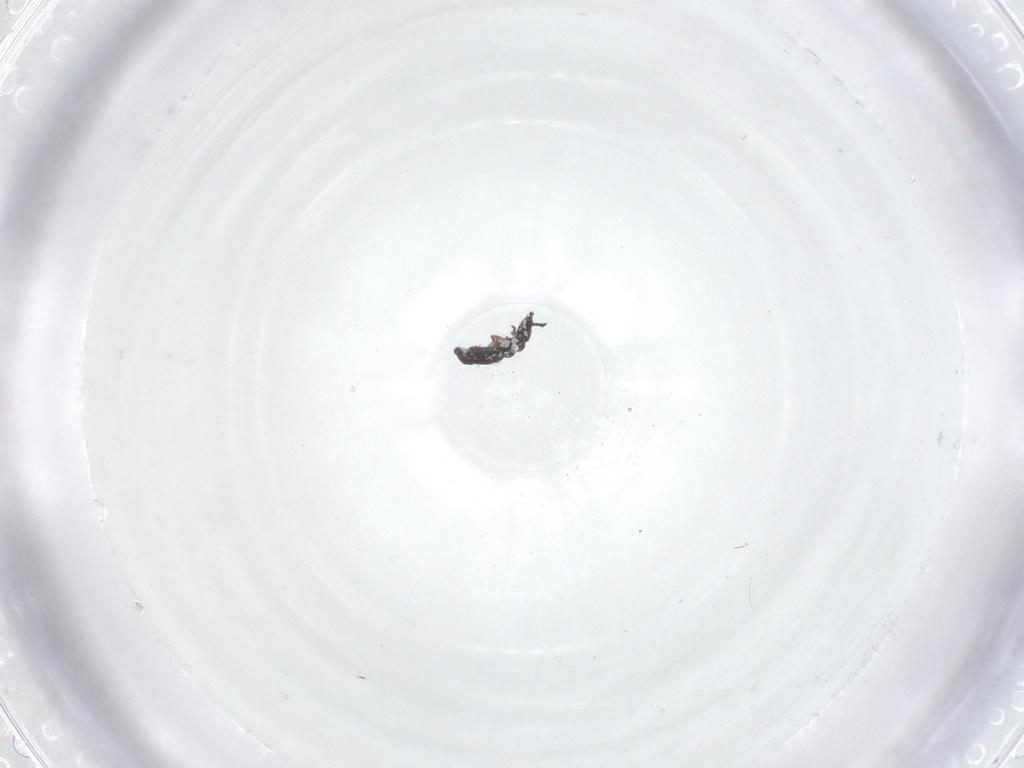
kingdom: Animalia
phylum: Arthropoda
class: Collembola
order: Poduromorpha
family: Hypogastruridae
